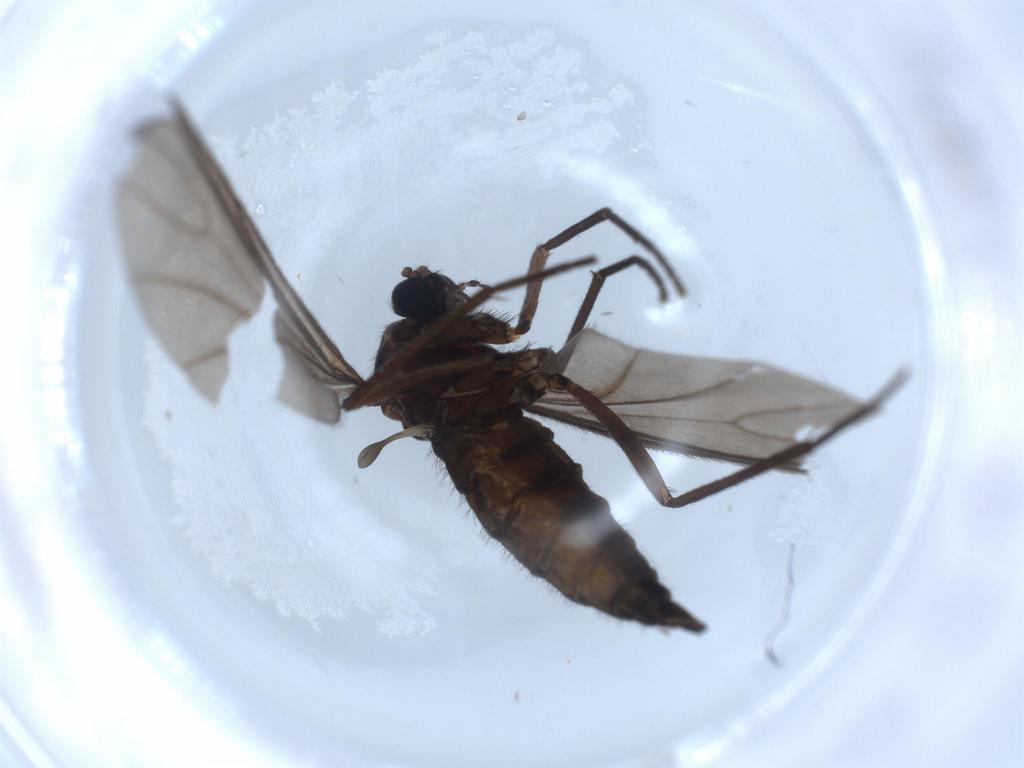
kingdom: Animalia
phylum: Arthropoda
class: Insecta
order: Diptera
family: Sciaridae
